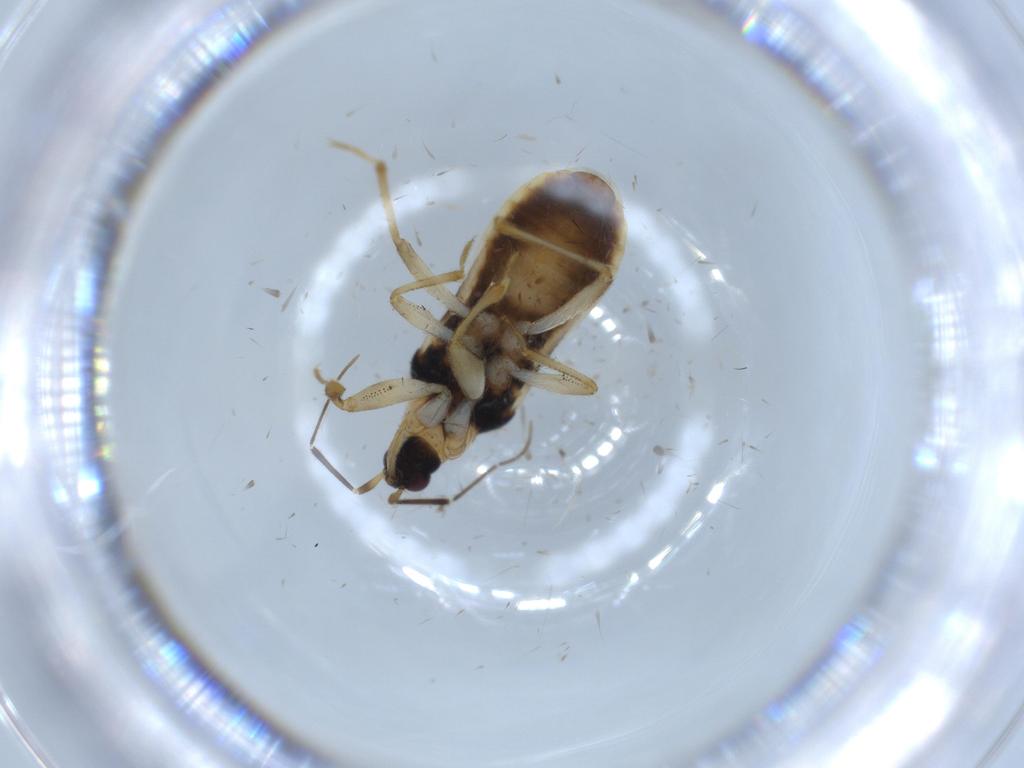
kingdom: Animalia
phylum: Arthropoda
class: Insecta
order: Hemiptera
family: Nabidae
